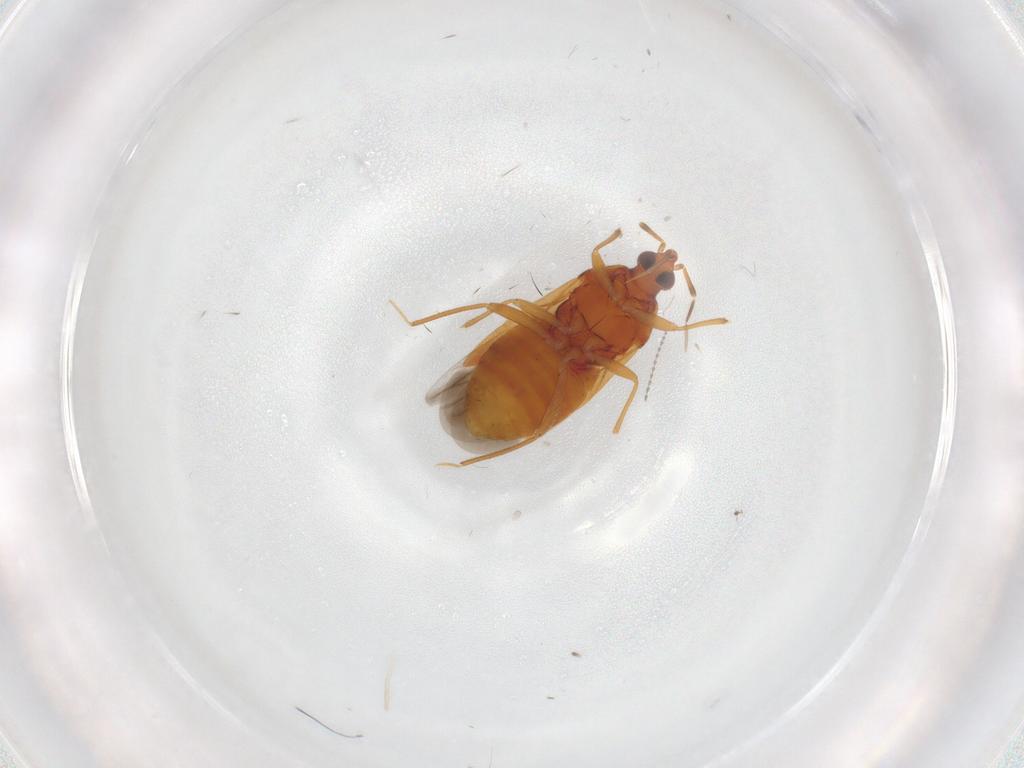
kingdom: Animalia
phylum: Arthropoda
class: Insecta
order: Hemiptera
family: Anthocoridae
